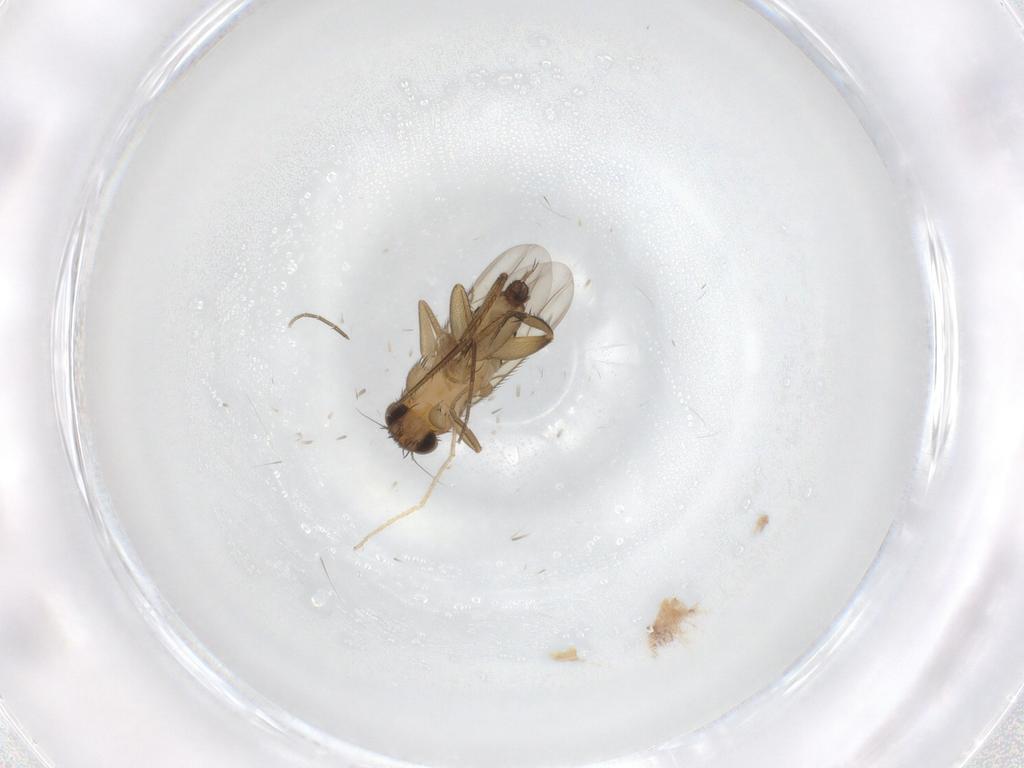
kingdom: Animalia
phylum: Arthropoda
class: Insecta
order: Diptera
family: Chironomidae
